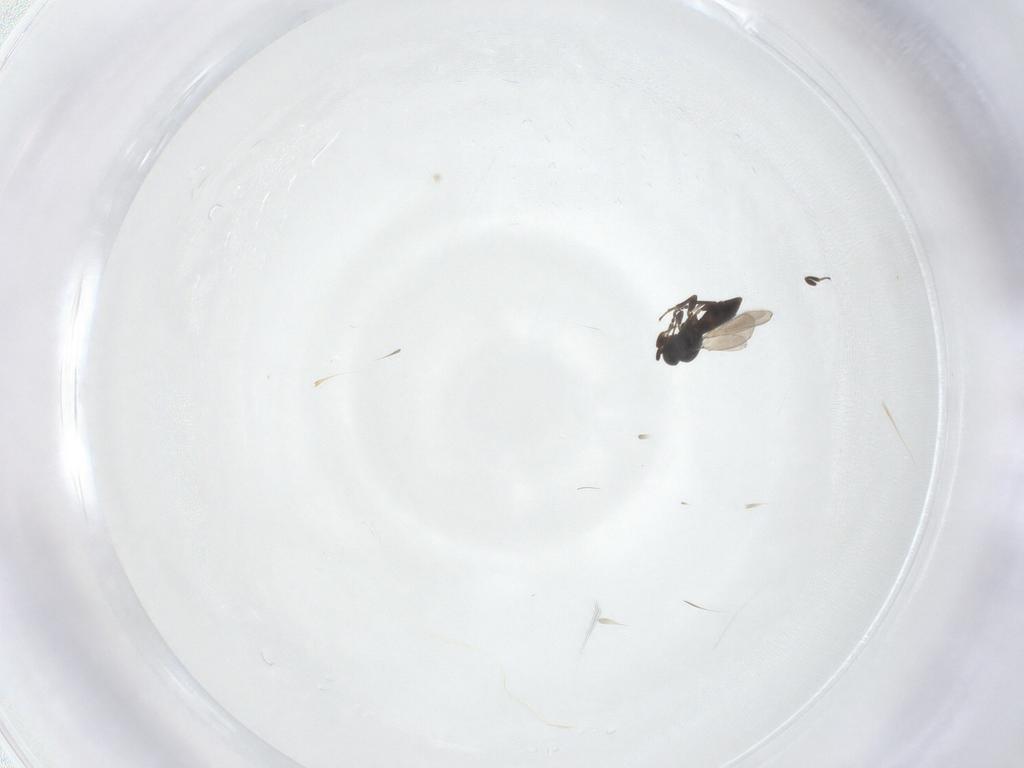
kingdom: Animalia
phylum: Arthropoda
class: Insecta
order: Hymenoptera
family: Platygastridae
